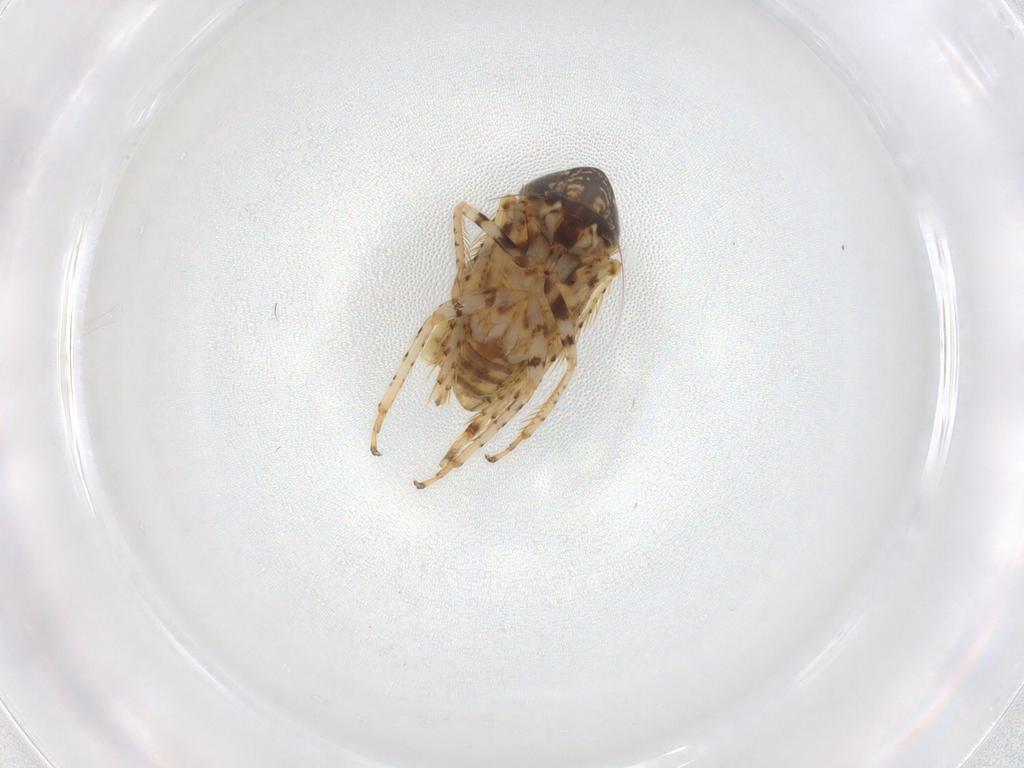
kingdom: Animalia
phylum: Arthropoda
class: Insecta
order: Hemiptera
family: Cicadellidae
